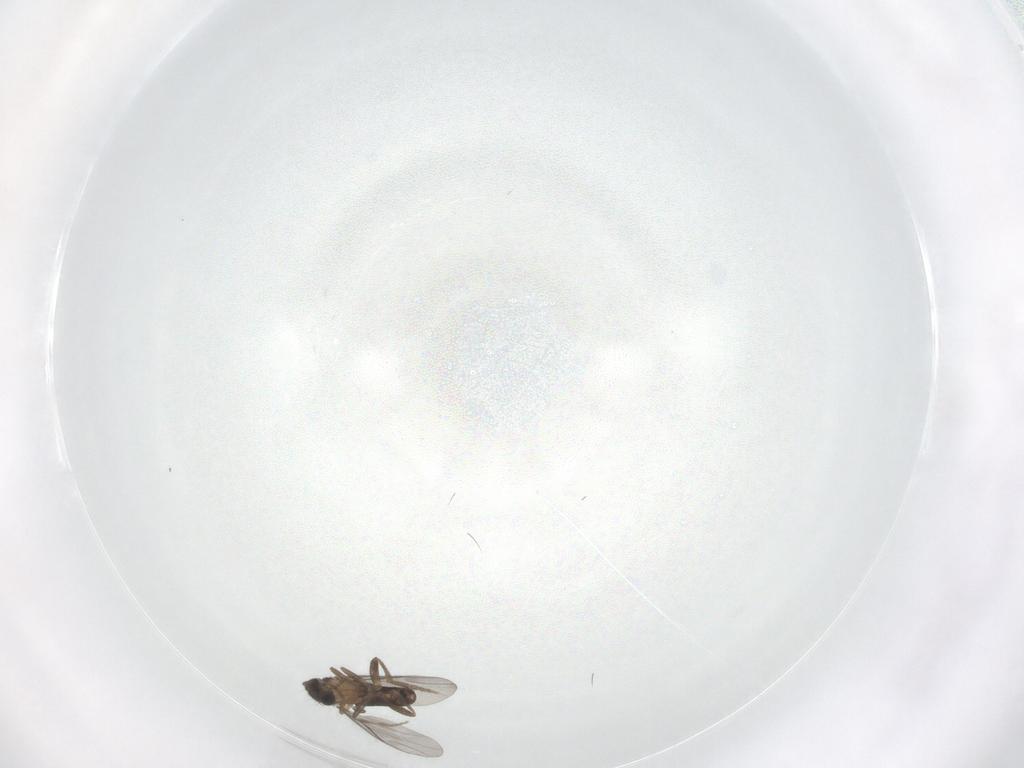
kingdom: Animalia
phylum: Arthropoda
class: Insecta
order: Diptera
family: Phoridae
